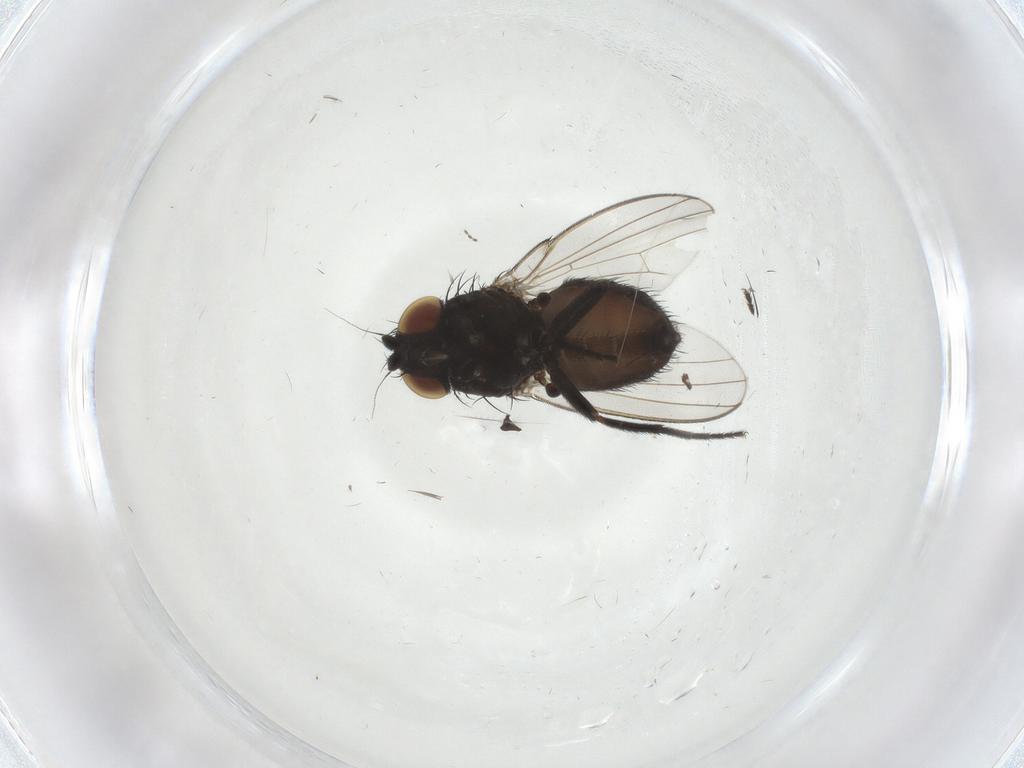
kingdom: Animalia
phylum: Arthropoda
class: Insecta
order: Diptera
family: Milichiidae
